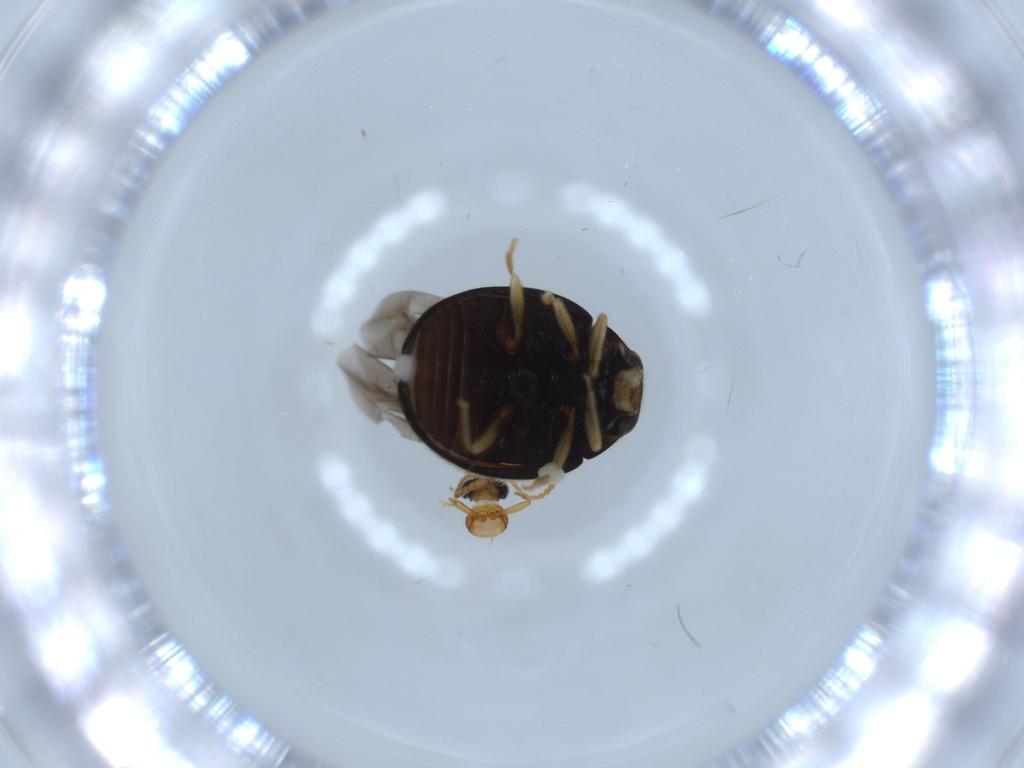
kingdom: Animalia
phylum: Arthropoda
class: Insecta
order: Coleoptera
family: Coccinellidae
